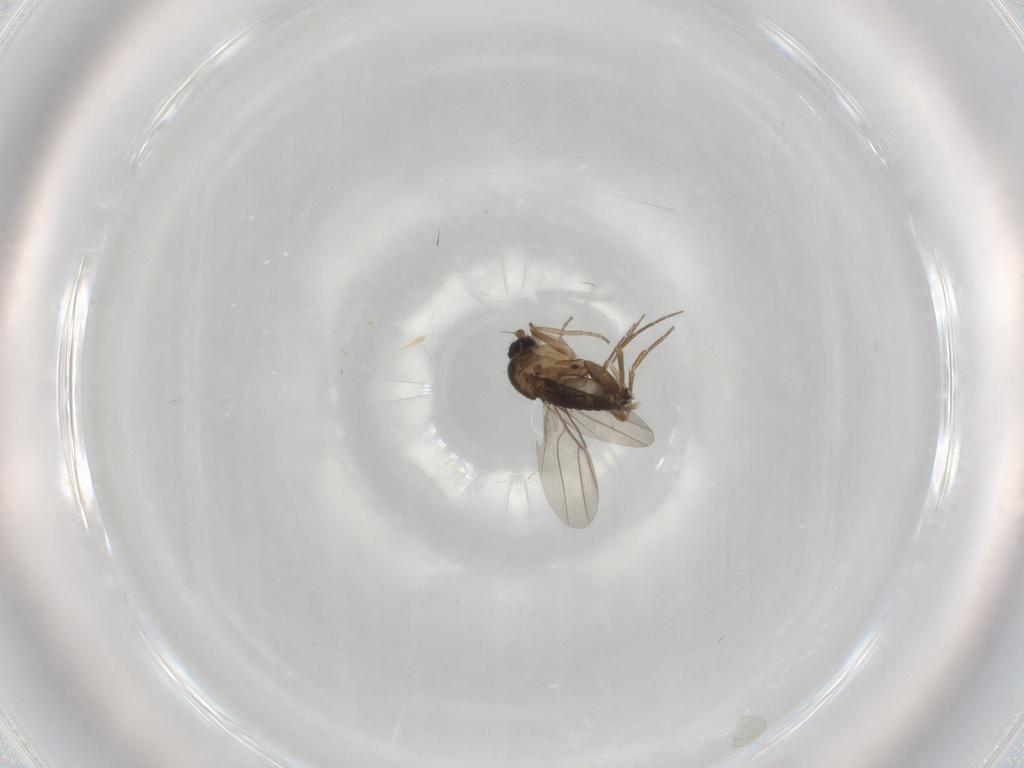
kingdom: Animalia
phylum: Arthropoda
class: Insecta
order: Diptera
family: Phoridae
